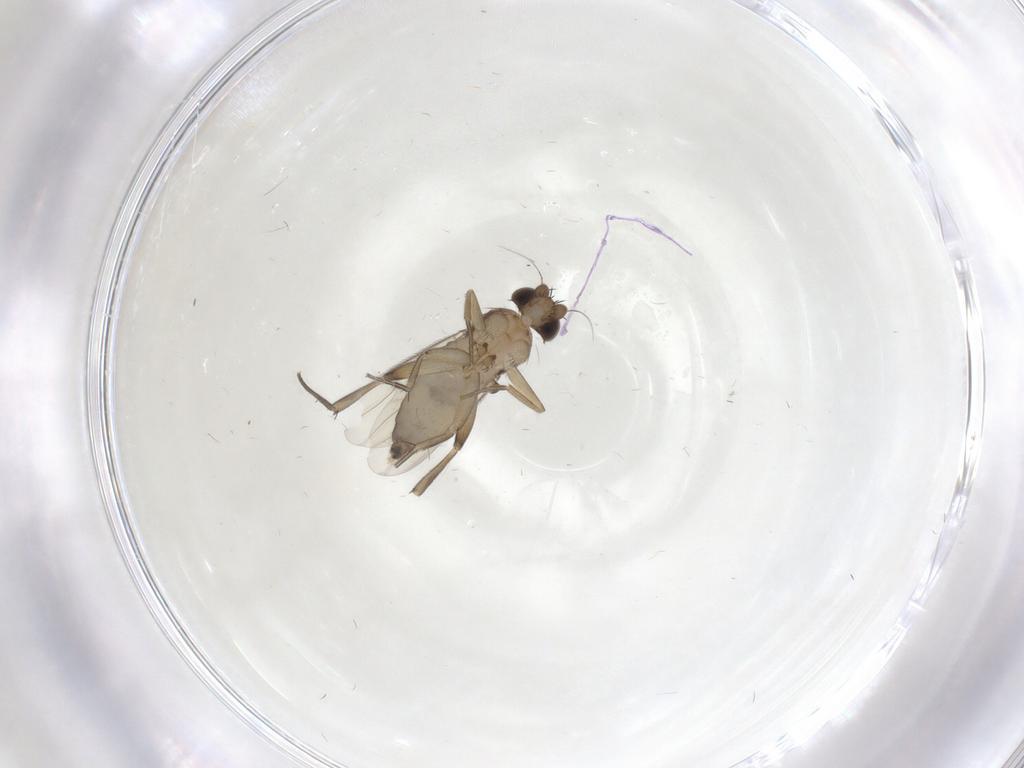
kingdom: Animalia
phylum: Arthropoda
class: Insecta
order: Diptera
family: Phoridae
